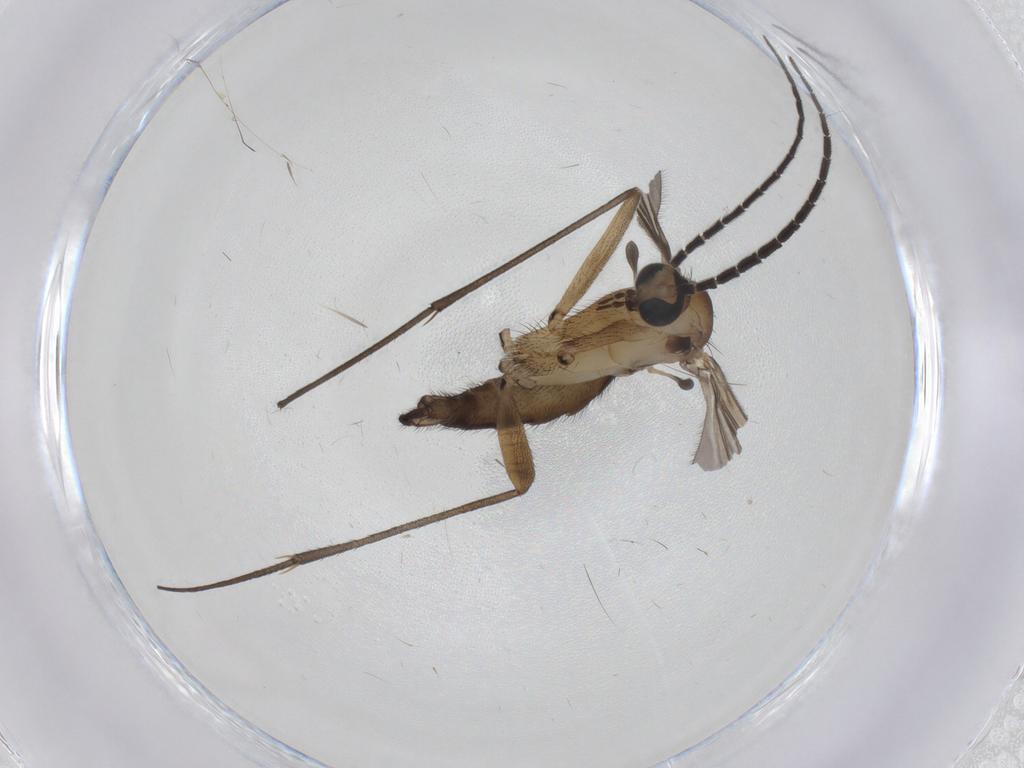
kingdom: Animalia
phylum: Arthropoda
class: Insecta
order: Diptera
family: Sciaridae
